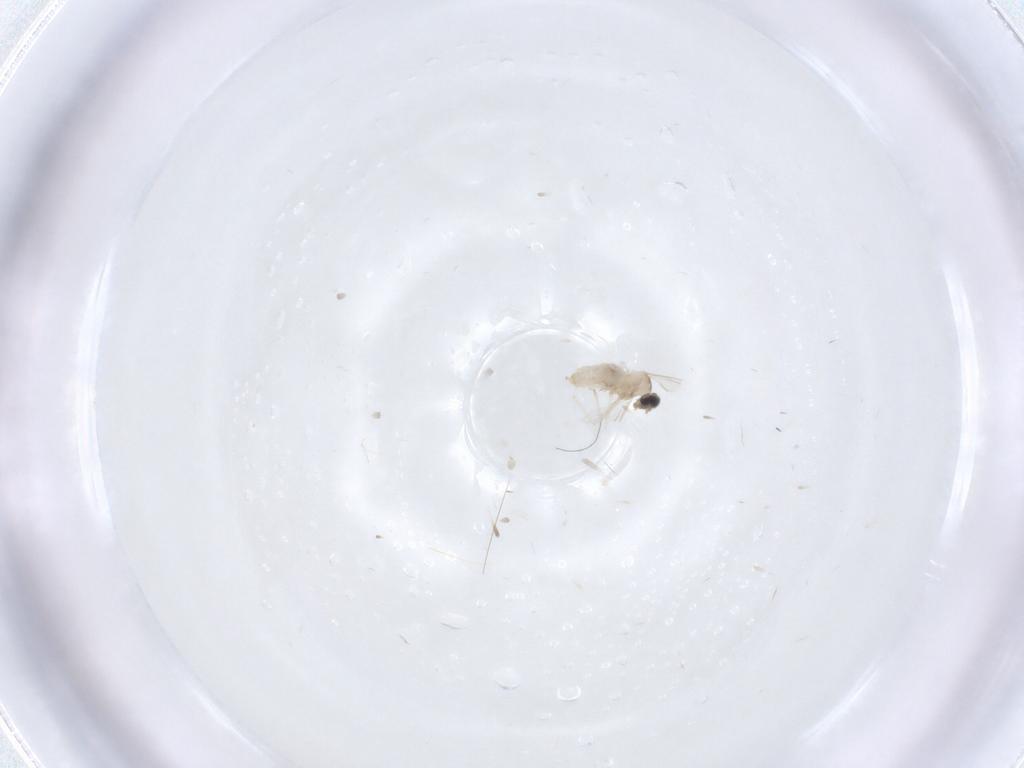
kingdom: Animalia
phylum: Arthropoda
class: Insecta
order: Diptera
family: Cecidomyiidae
